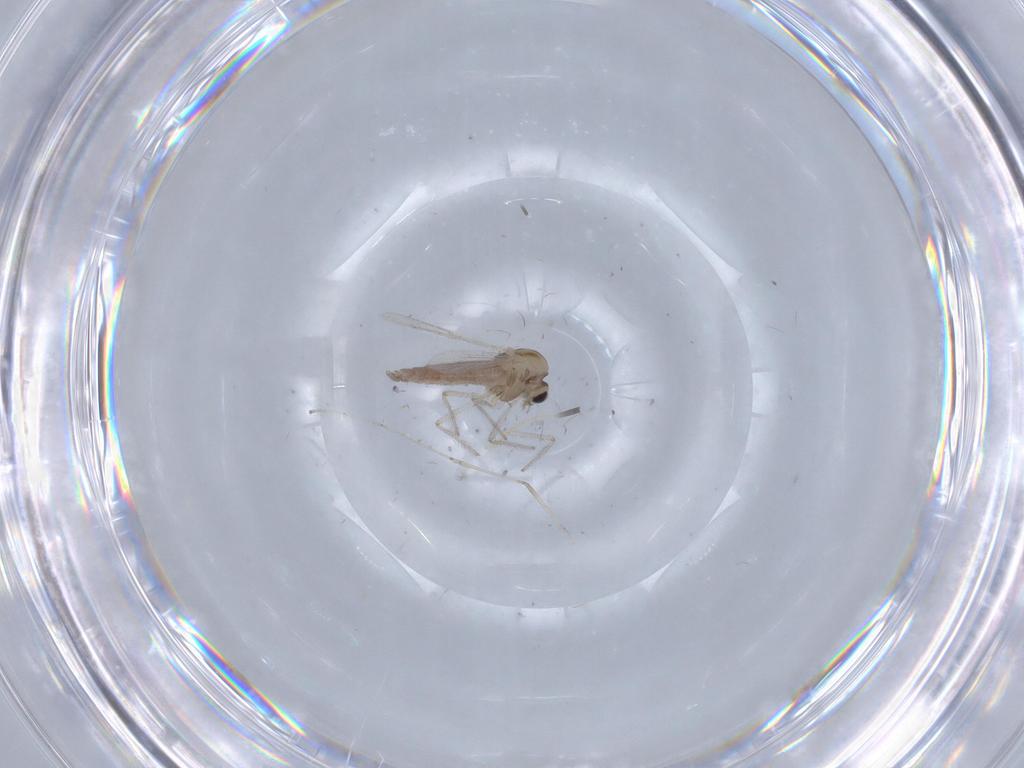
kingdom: Animalia
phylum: Arthropoda
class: Insecta
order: Diptera
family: Chironomidae
